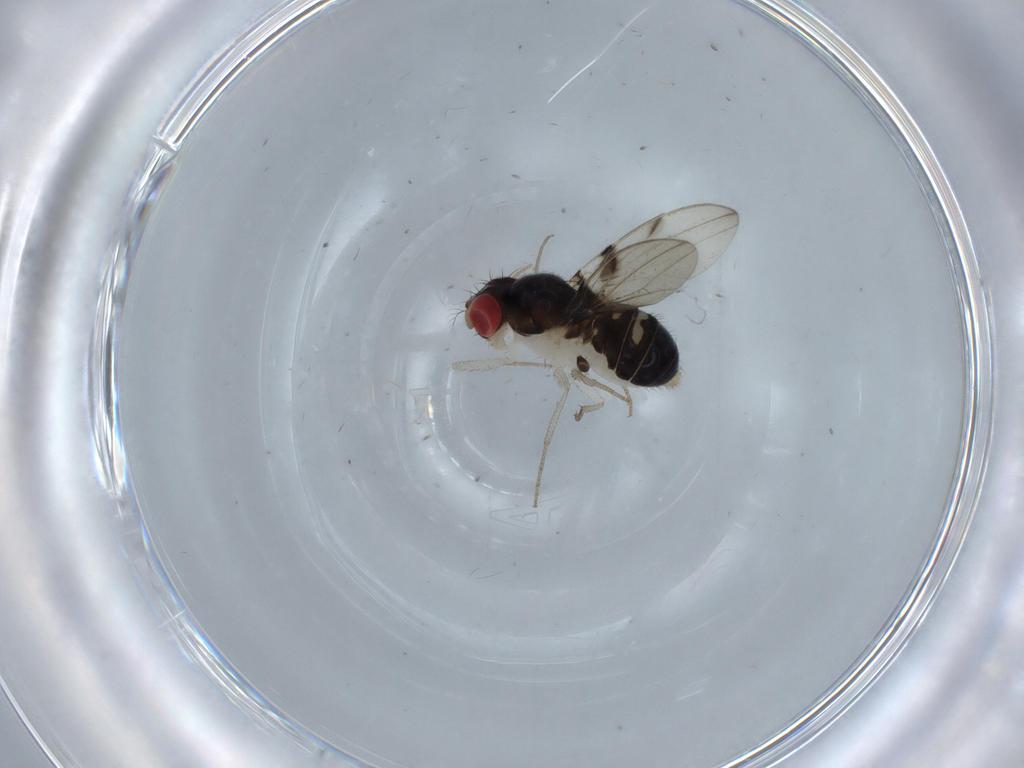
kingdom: Animalia
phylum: Arthropoda
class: Insecta
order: Diptera
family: Drosophilidae
